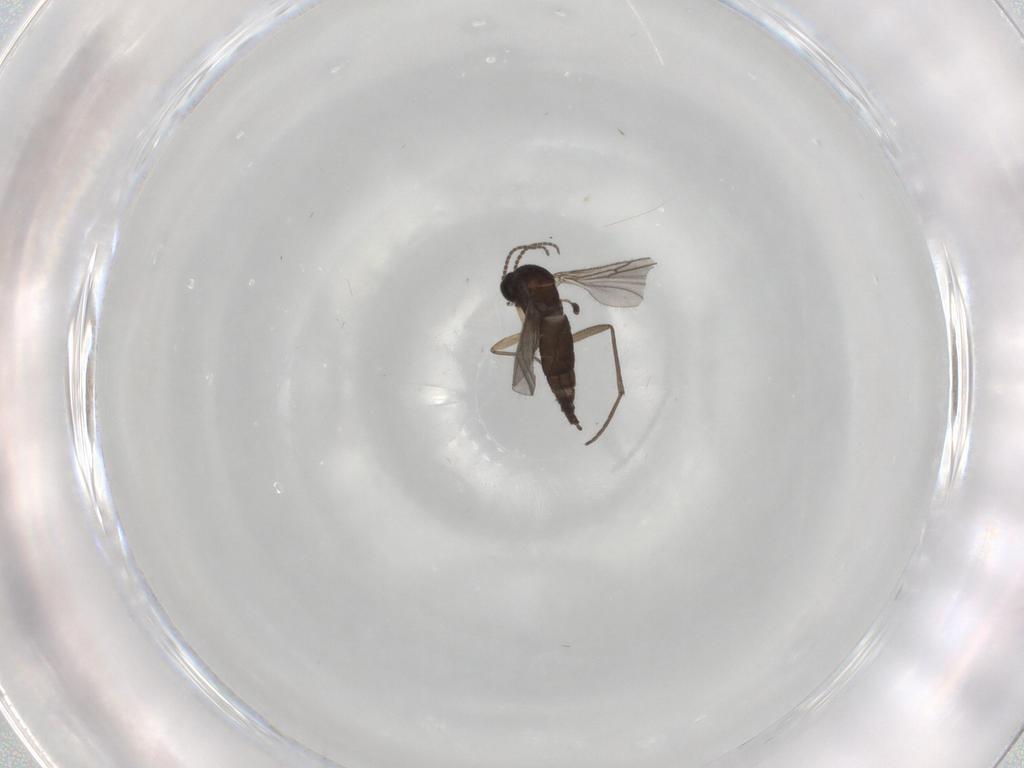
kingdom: Animalia
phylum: Arthropoda
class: Insecta
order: Diptera
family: Sciaridae
